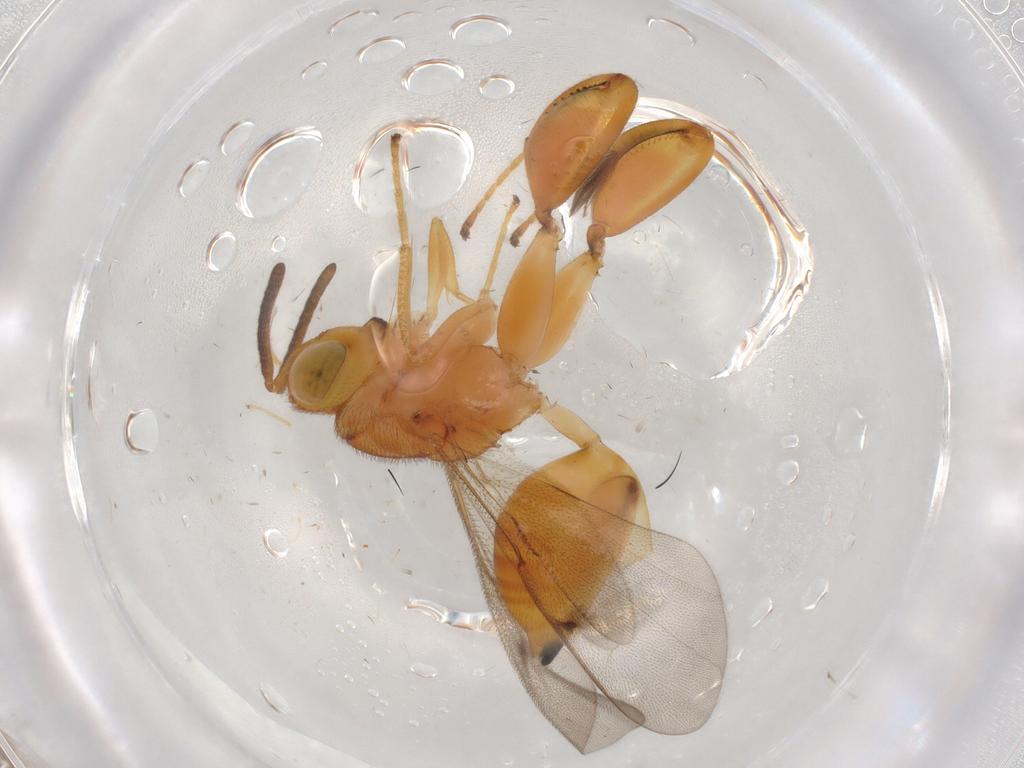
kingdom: Animalia
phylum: Arthropoda
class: Insecta
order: Hymenoptera
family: Chalcididae
